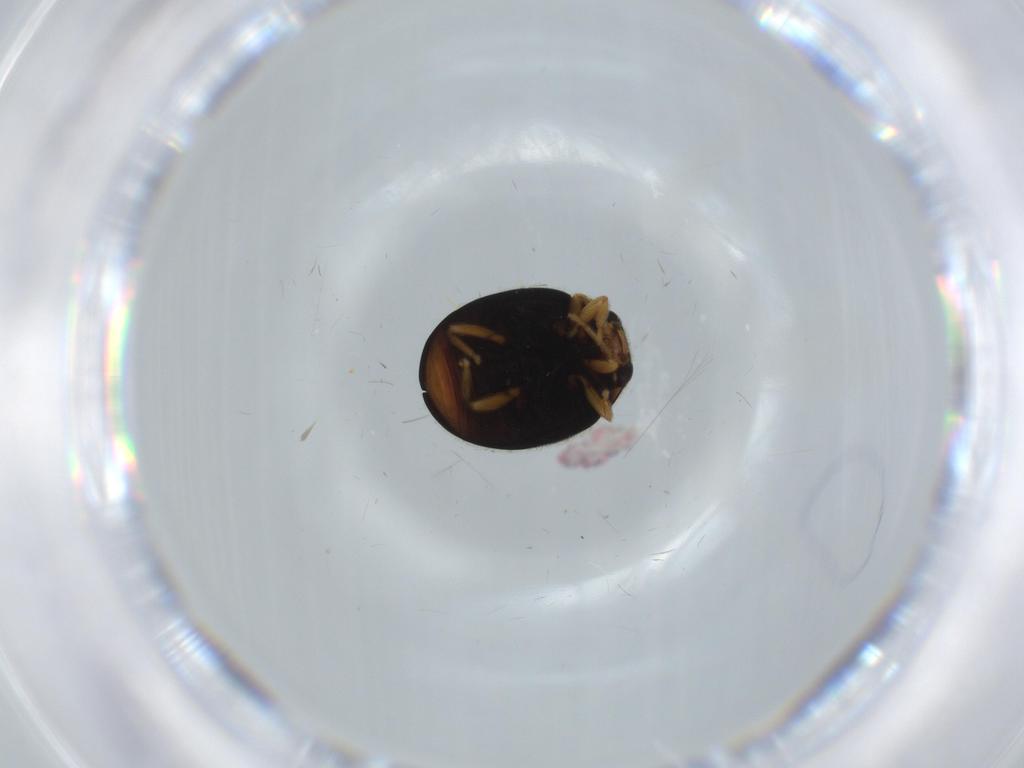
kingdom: Animalia
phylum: Arthropoda
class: Insecta
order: Coleoptera
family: Coccinellidae
